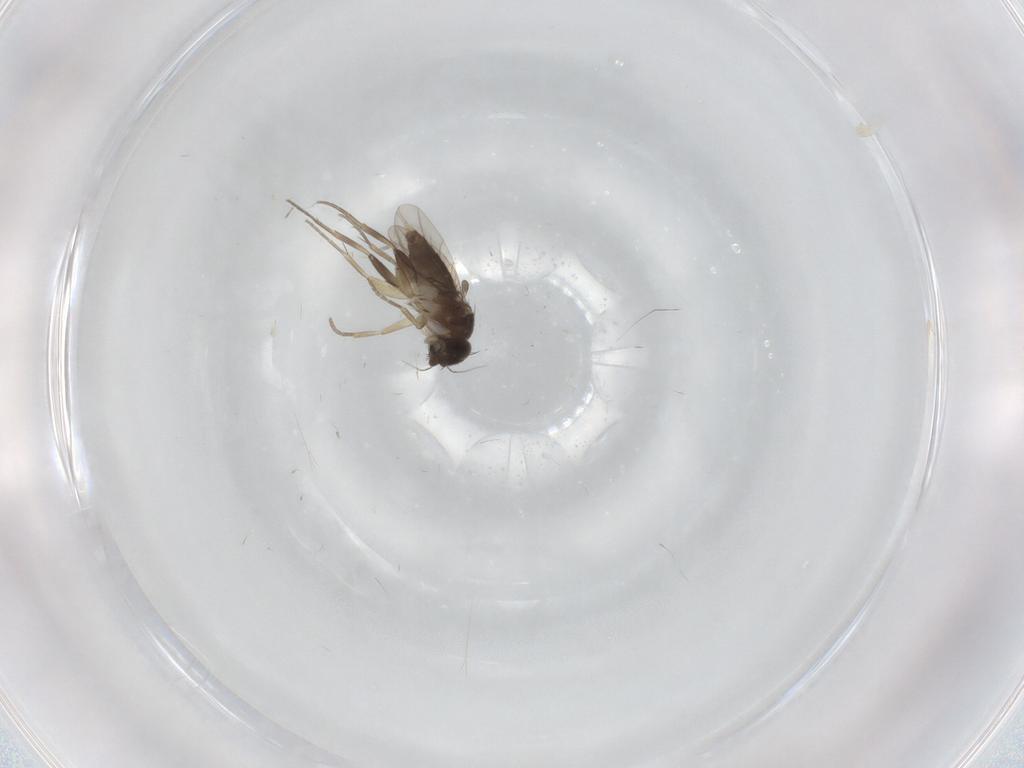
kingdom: Animalia
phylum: Arthropoda
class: Insecta
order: Diptera
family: Phoridae
